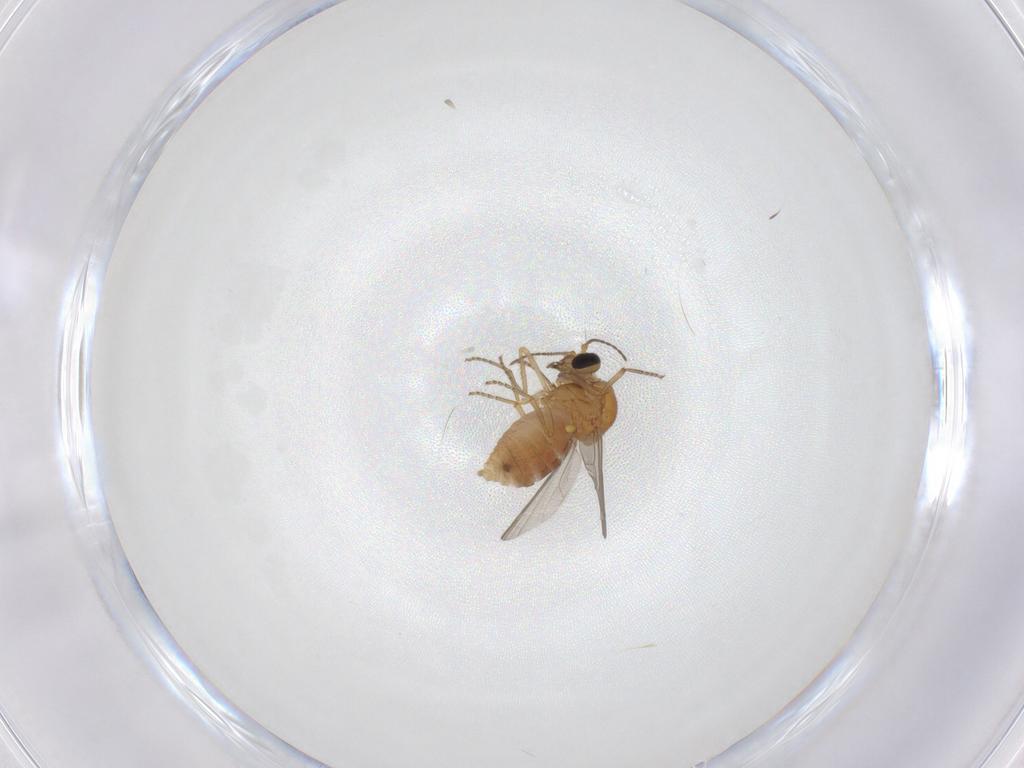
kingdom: Animalia
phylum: Arthropoda
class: Insecta
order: Diptera
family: Ceratopogonidae
